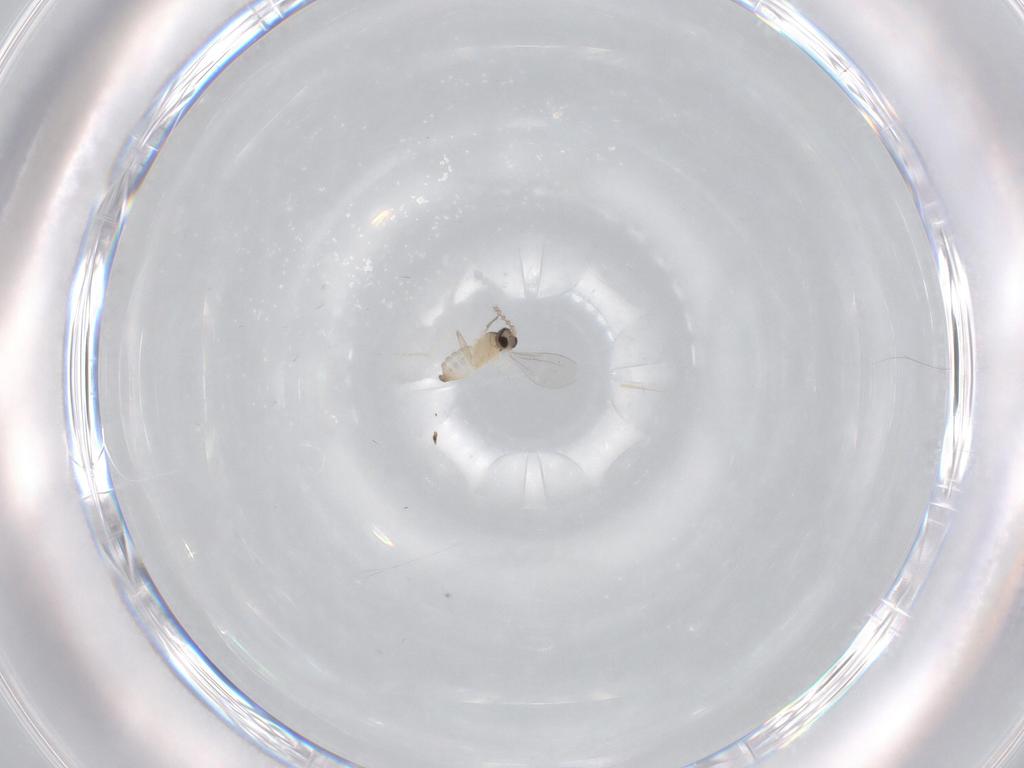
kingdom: Animalia
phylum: Arthropoda
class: Insecta
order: Diptera
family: Cecidomyiidae
